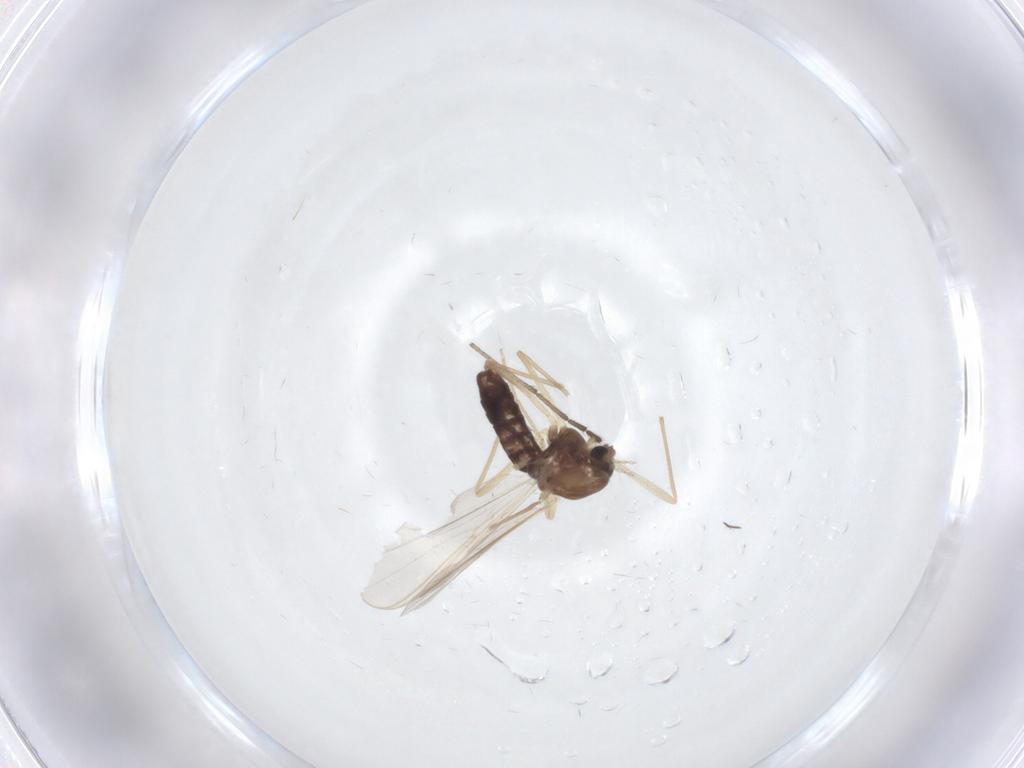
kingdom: Animalia
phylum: Arthropoda
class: Insecta
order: Diptera
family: Chironomidae
